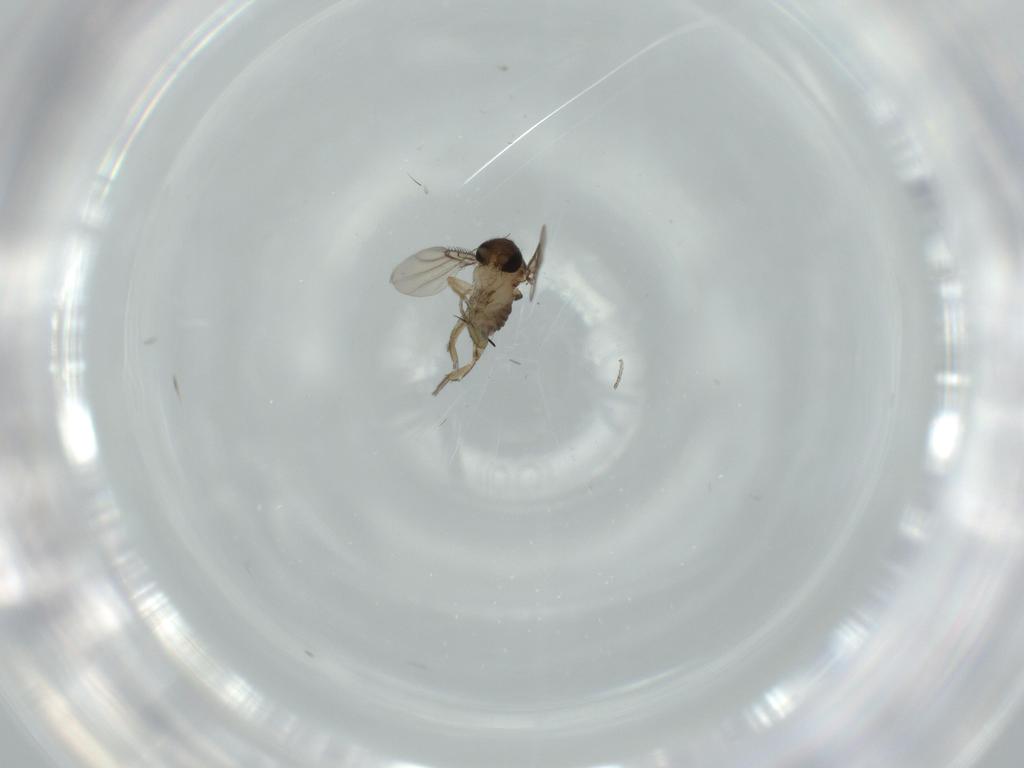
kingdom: Animalia
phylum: Arthropoda
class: Insecta
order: Diptera
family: Phoridae
